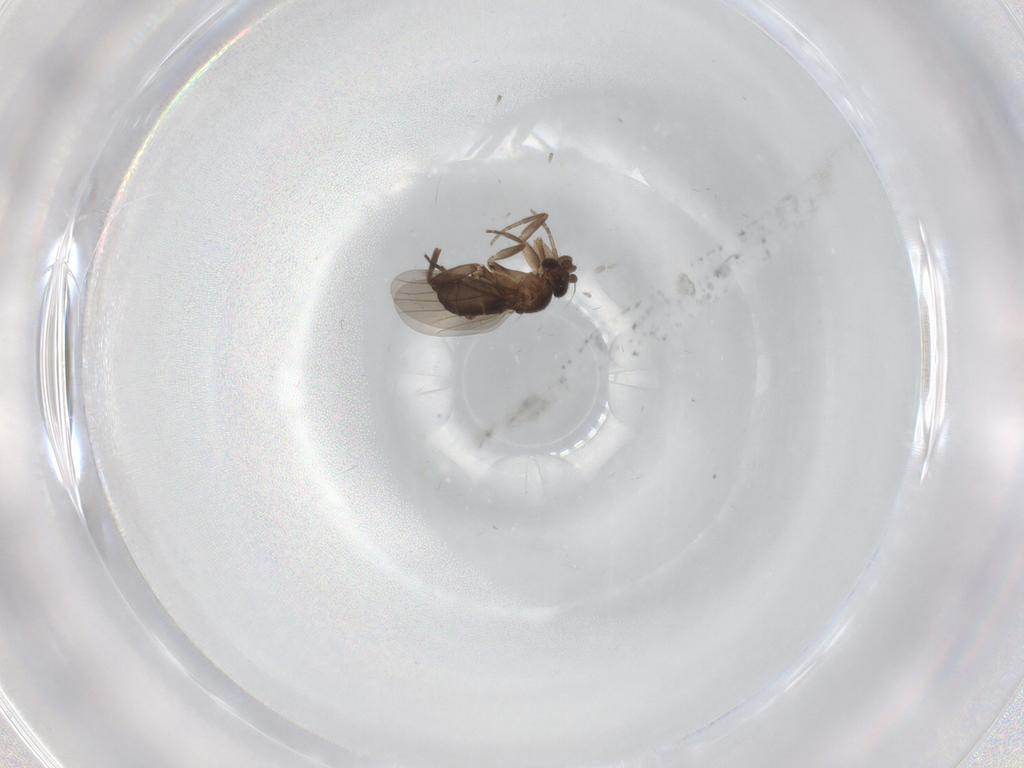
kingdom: Animalia
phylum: Arthropoda
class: Insecta
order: Diptera
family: Phoridae
